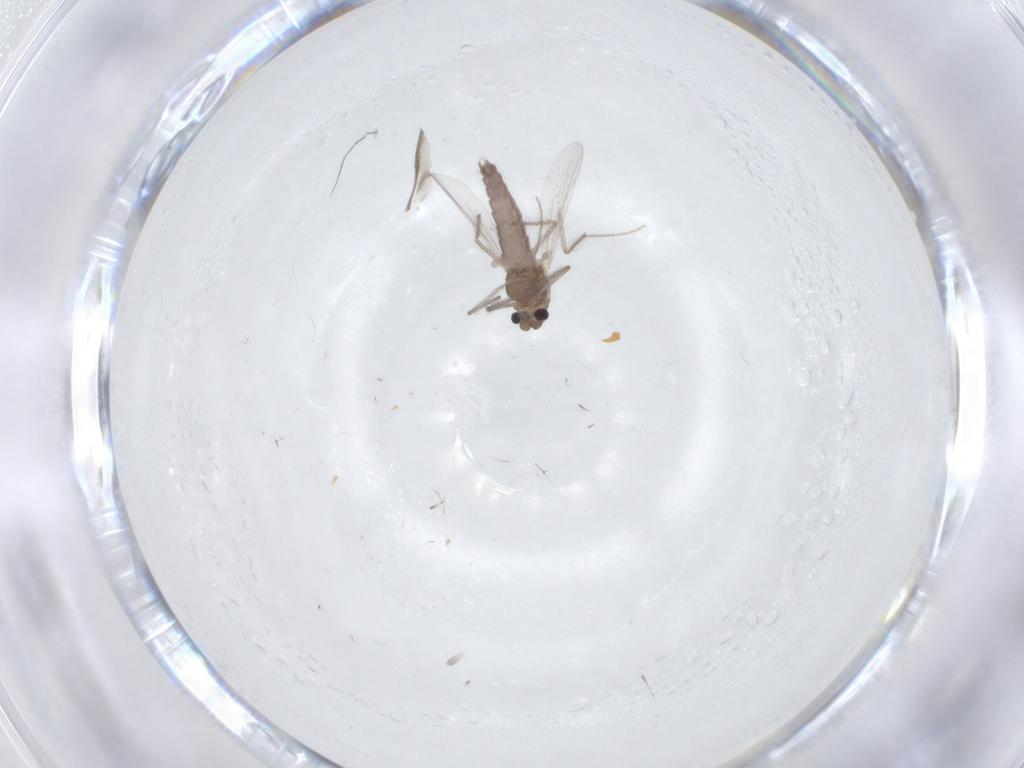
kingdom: Animalia
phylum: Arthropoda
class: Insecta
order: Diptera
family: Chironomidae
